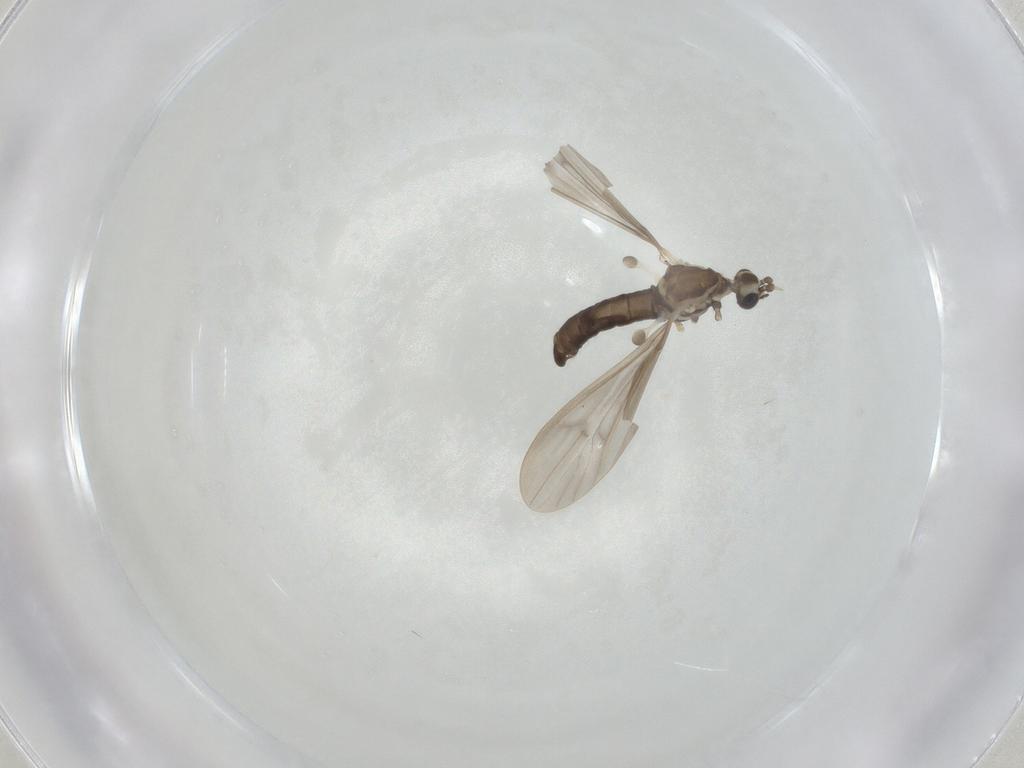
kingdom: Animalia
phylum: Arthropoda
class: Insecta
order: Diptera
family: Limoniidae
